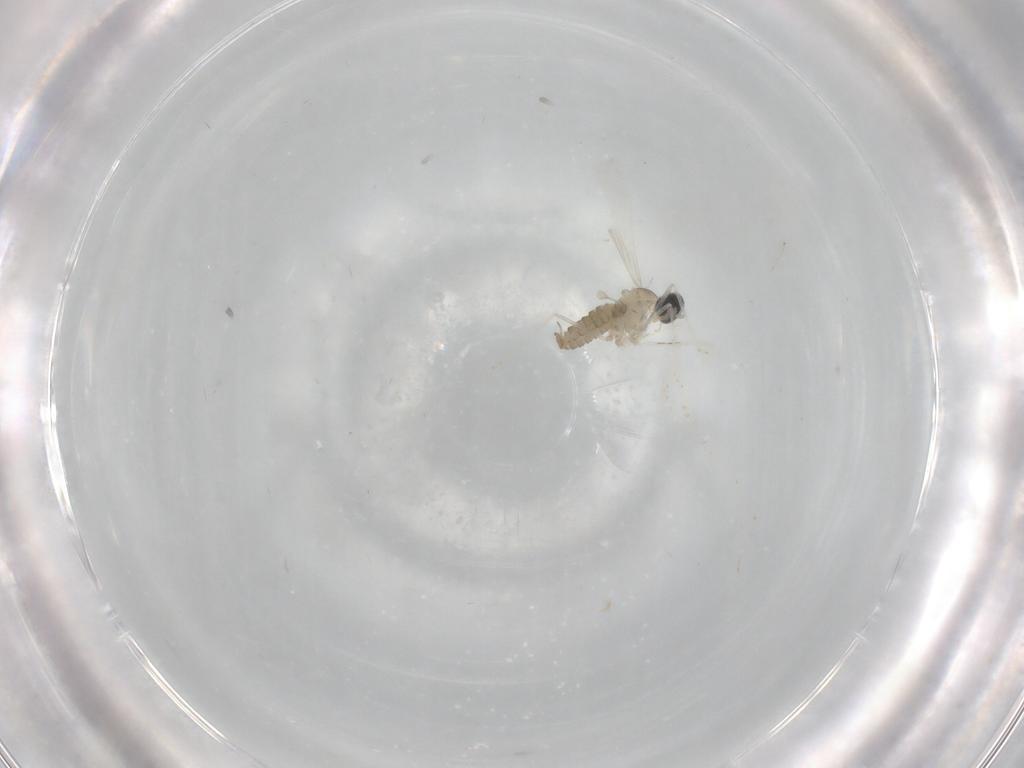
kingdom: Animalia
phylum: Arthropoda
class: Insecta
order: Diptera
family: Cecidomyiidae
